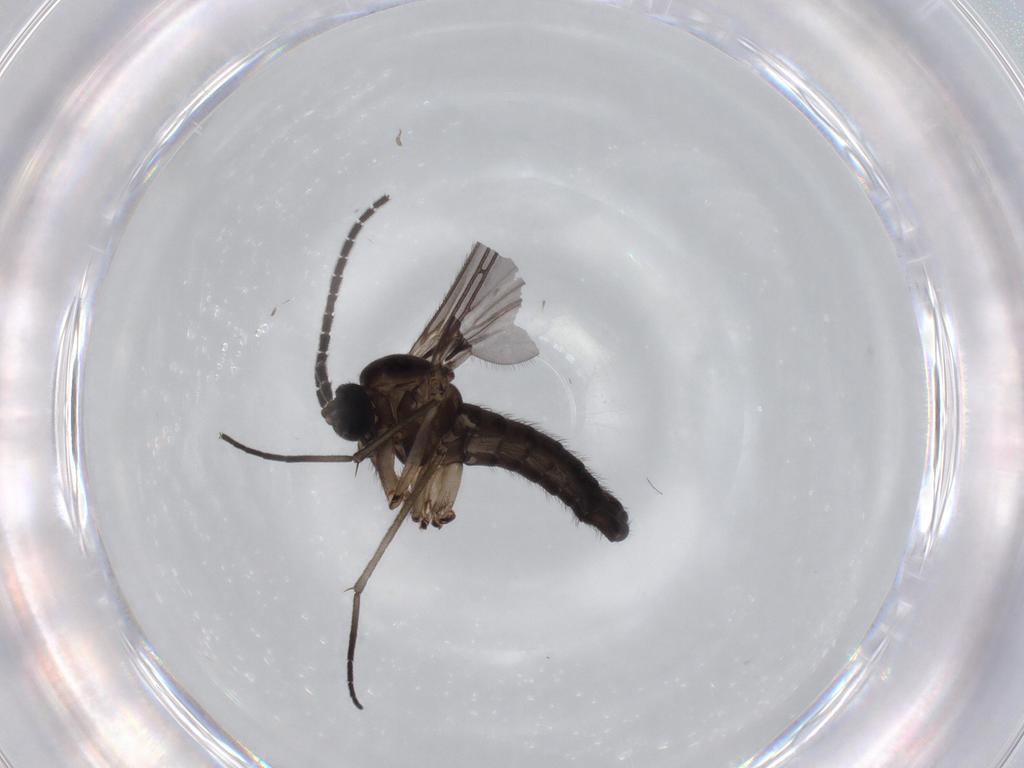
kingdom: Animalia
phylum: Arthropoda
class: Insecta
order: Diptera
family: Sciaridae
